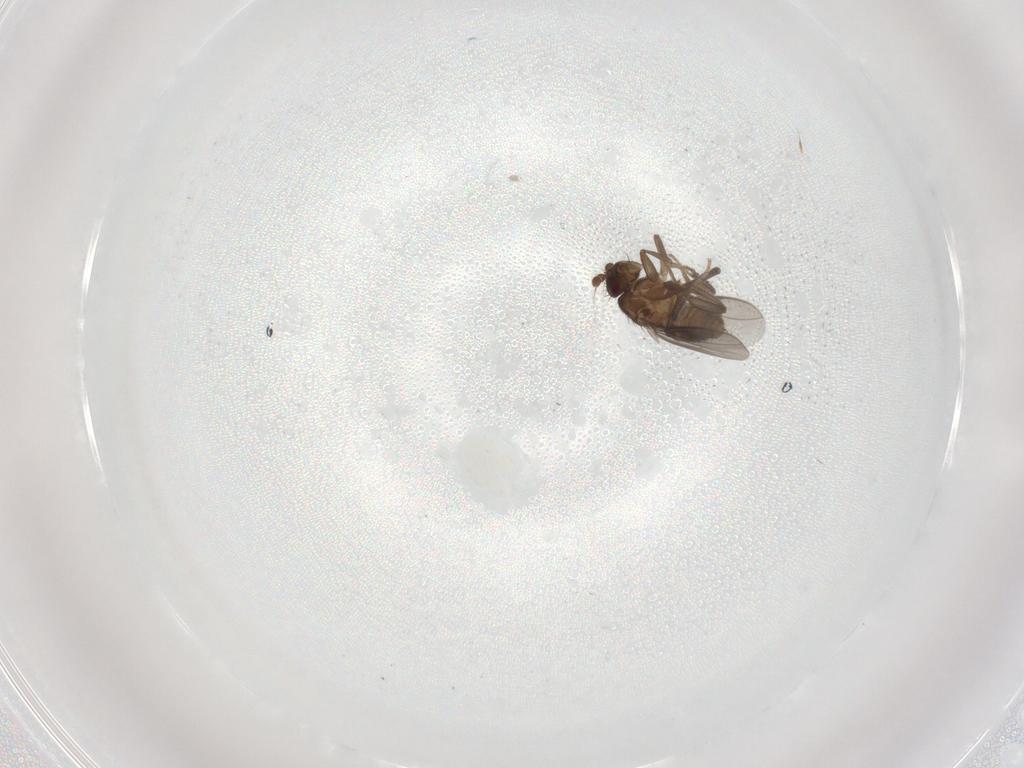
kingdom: Animalia
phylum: Arthropoda
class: Insecta
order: Diptera
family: Sphaeroceridae
